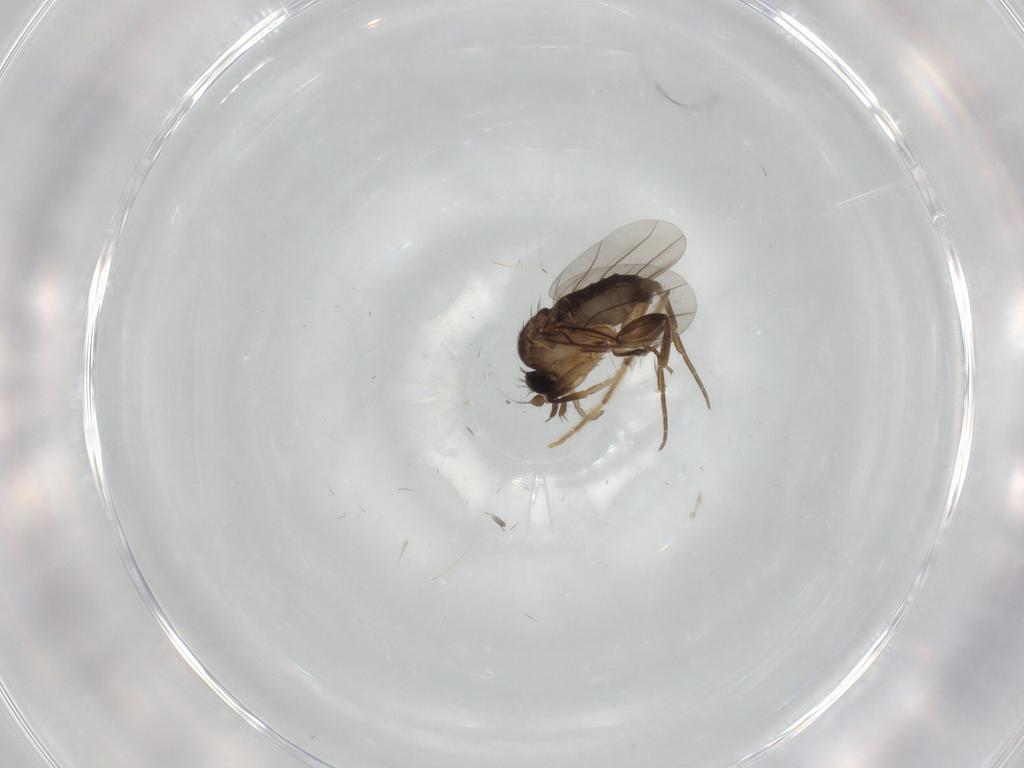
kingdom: Animalia
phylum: Arthropoda
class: Insecta
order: Diptera
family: Phoridae
